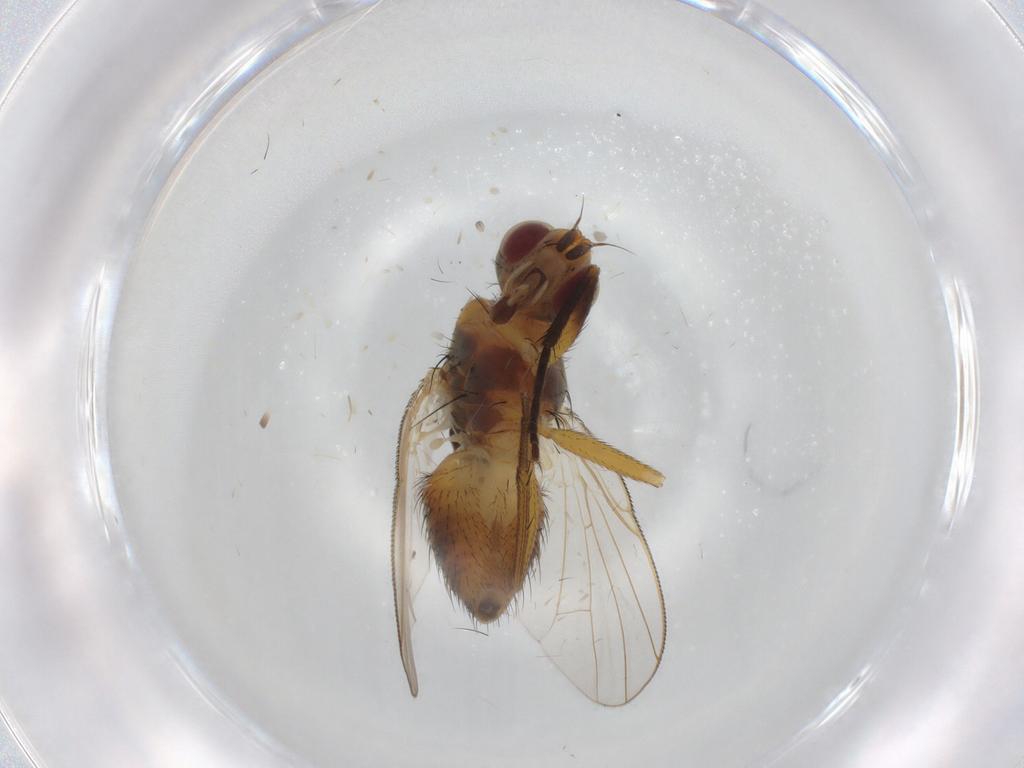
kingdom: Animalia
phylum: Arthropoda
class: Insecta
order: Diptera
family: Muscidae
